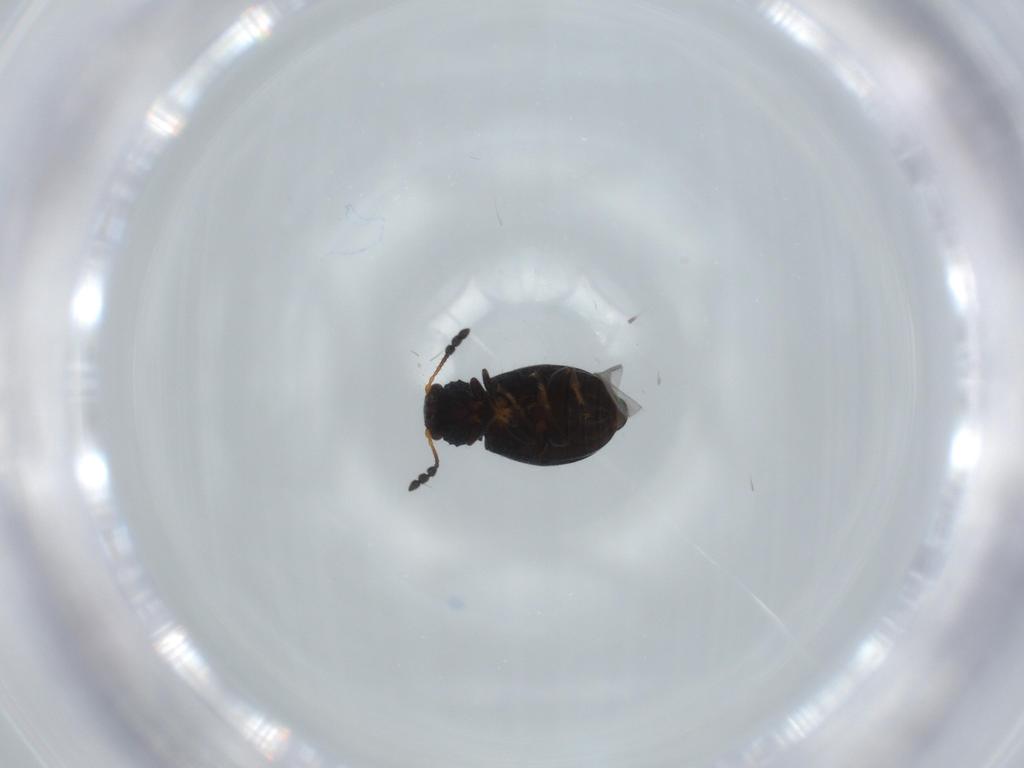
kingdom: Animalia
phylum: Arthropoda
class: Insecta
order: Coleoptera
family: Salpingidae
